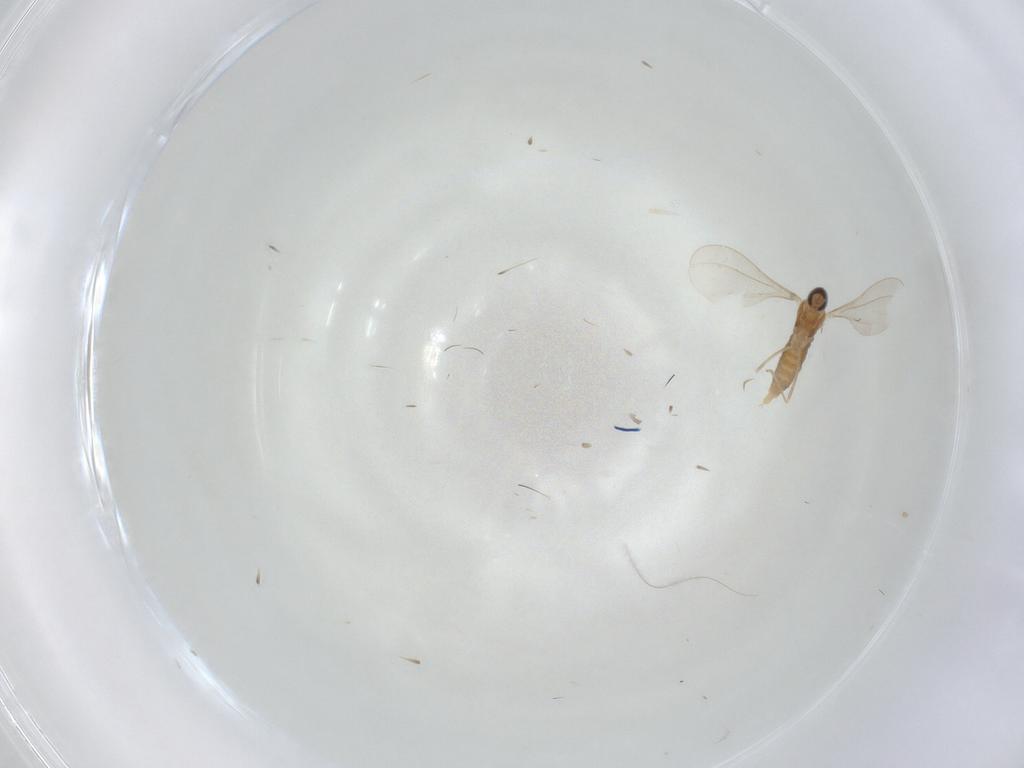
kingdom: Animalia
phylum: Arthropoda
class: Insecta
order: Diptera
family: Cecidomyiidae
